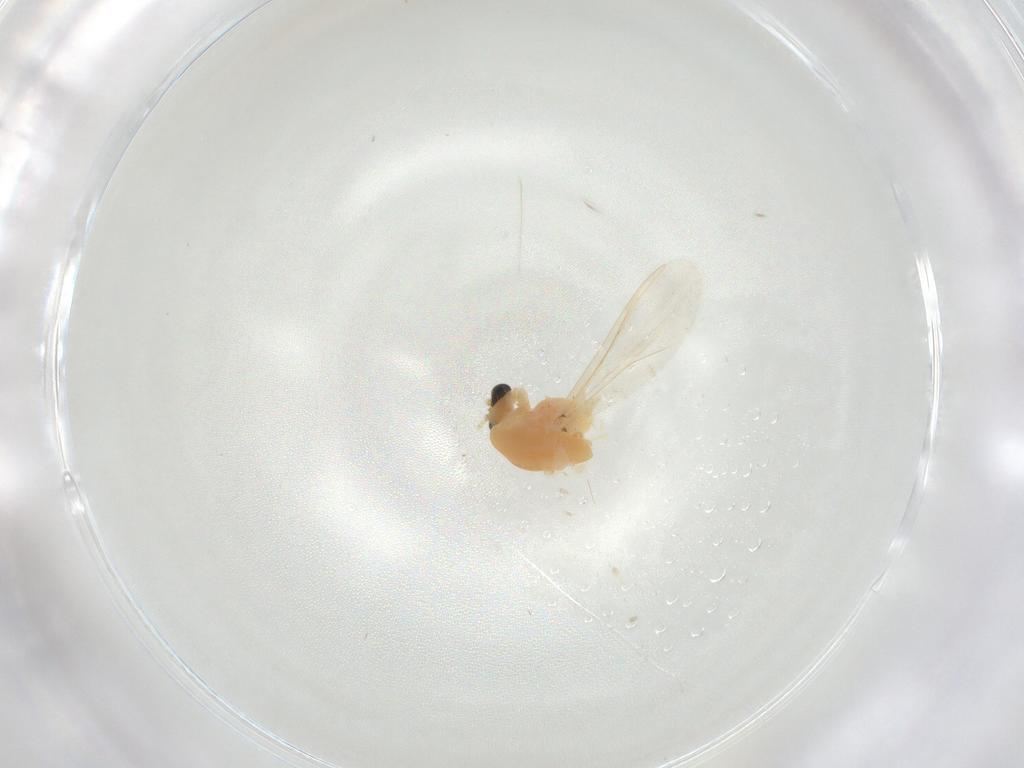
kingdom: Animalia
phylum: Arthropoda
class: Insecta
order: Diptera
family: Chironomidae
